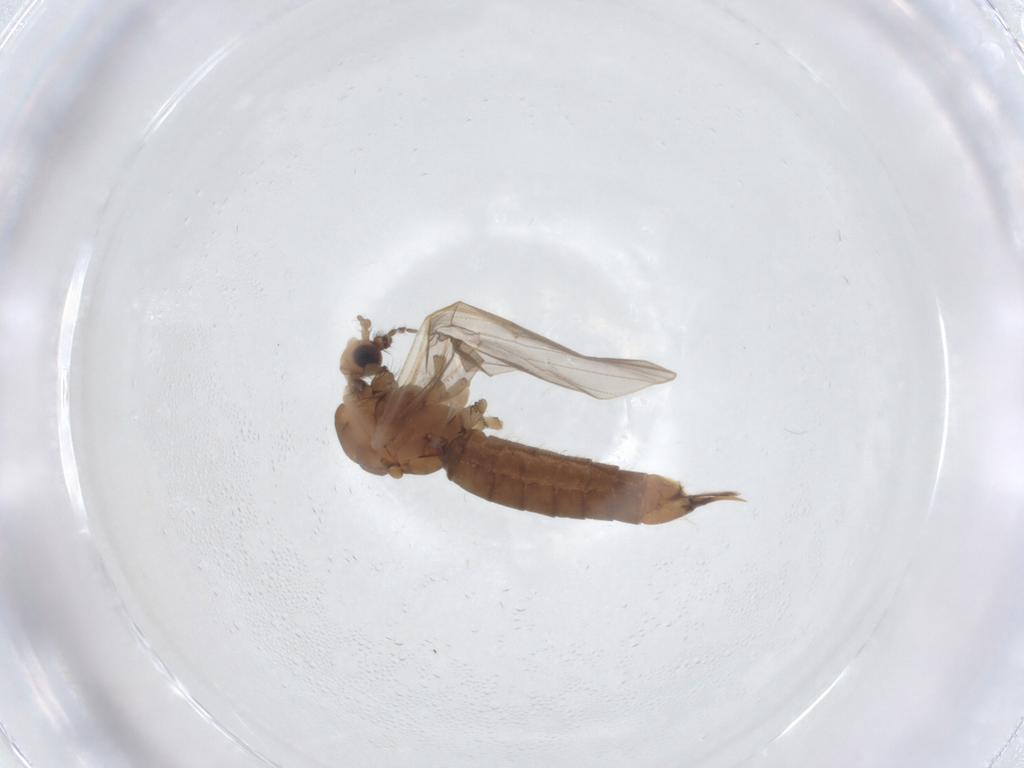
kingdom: Animalia
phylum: Arthropoda
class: Insecta
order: Diptera
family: Limoniidae
